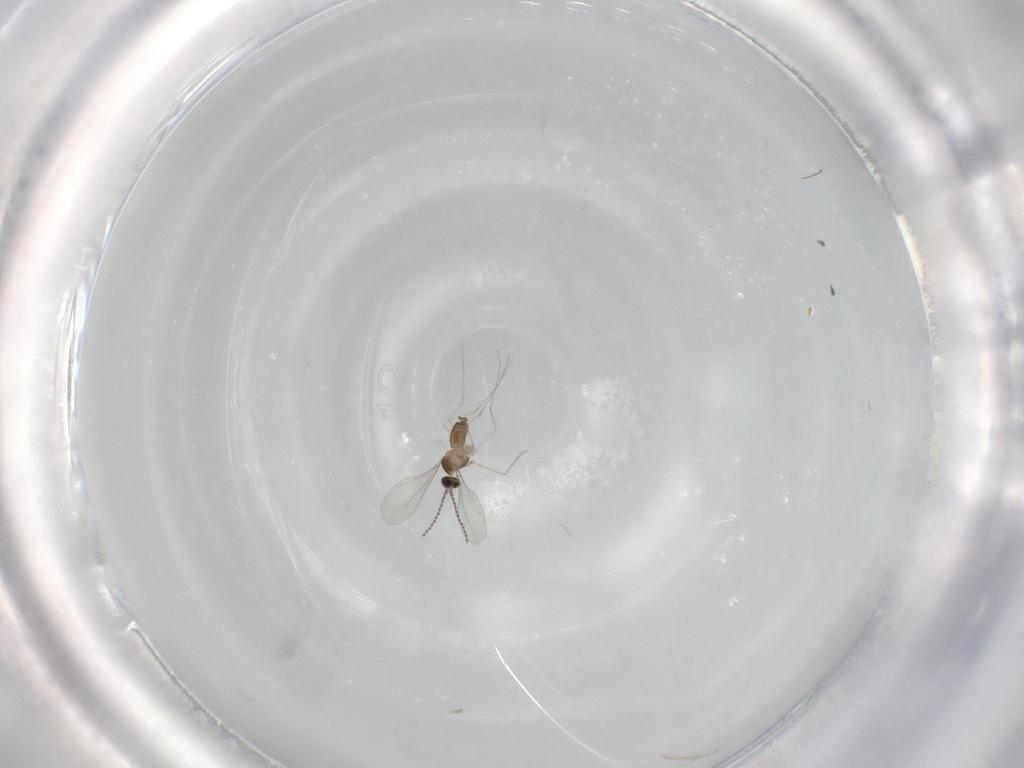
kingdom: Animalia
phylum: Arthropoda
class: Insecta
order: Diptera
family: Cecidomyiidae
